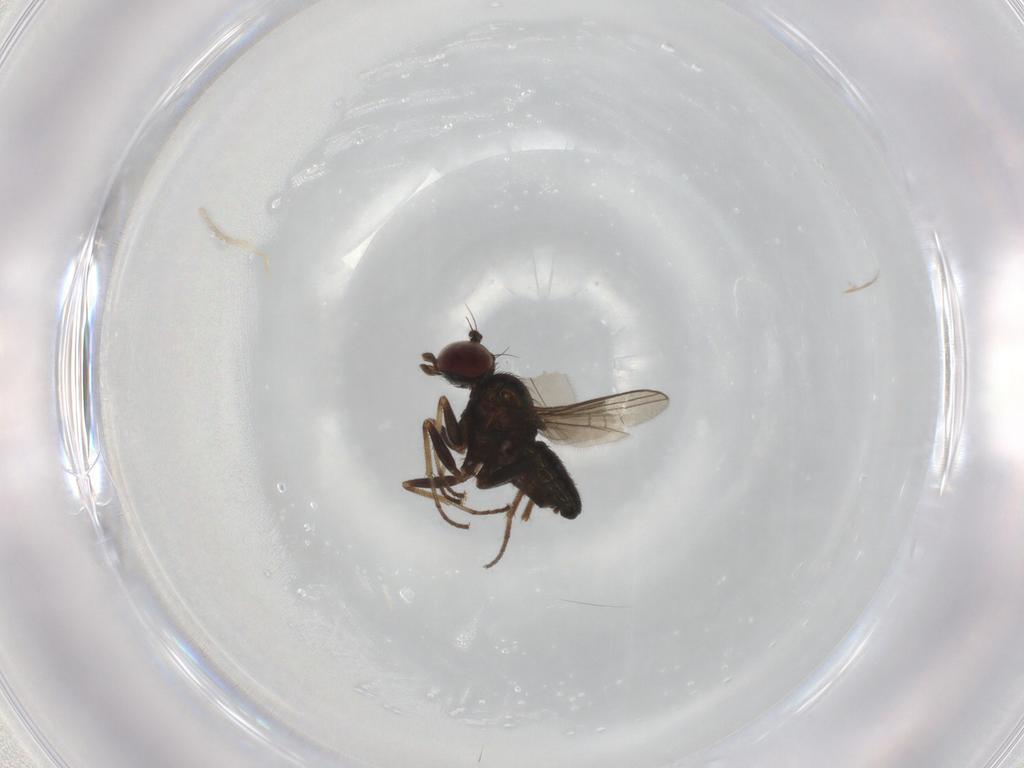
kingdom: Animalia
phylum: Arthropoda
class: Insecta
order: Diptera
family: Dolichopodidae
